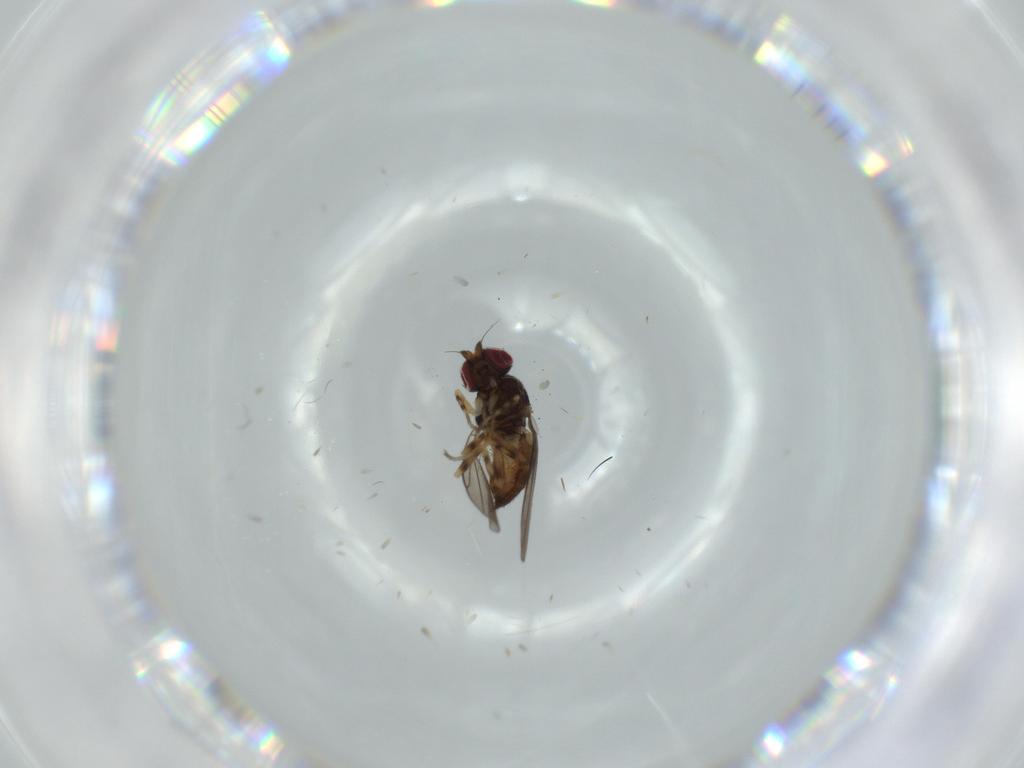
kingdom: Animalia
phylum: Arthropoda
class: Insecta
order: Diptera
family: Chloropidae
